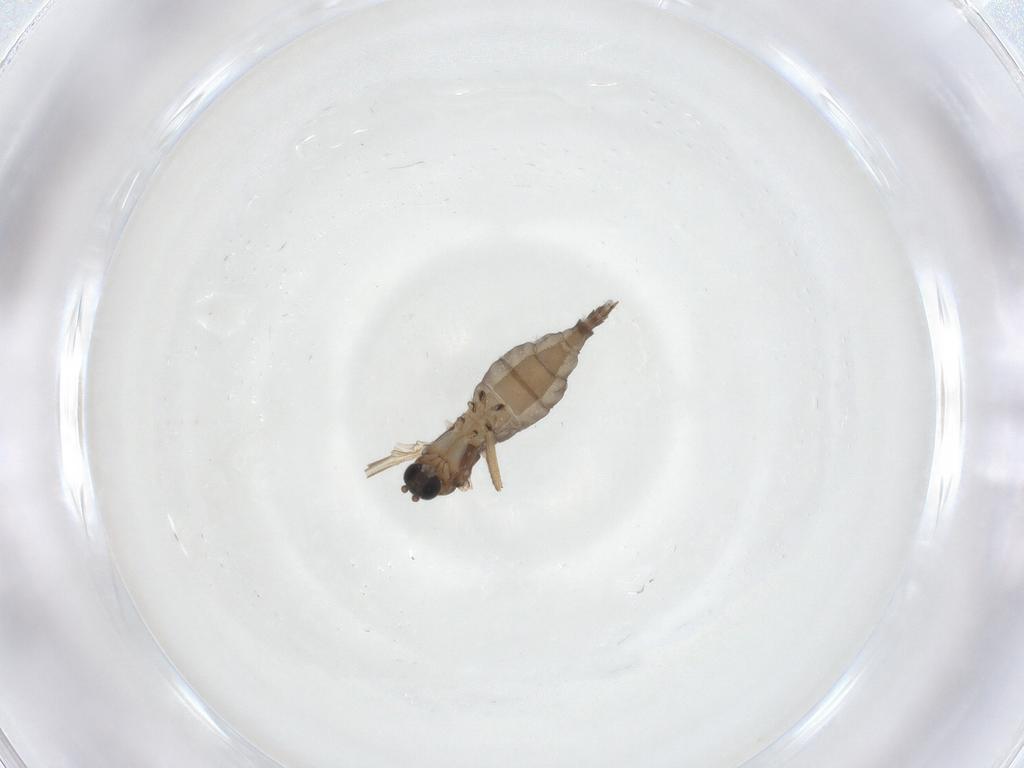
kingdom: Animalia
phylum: Arthropoda
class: Insecta
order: Diptera
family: Sciaridae
